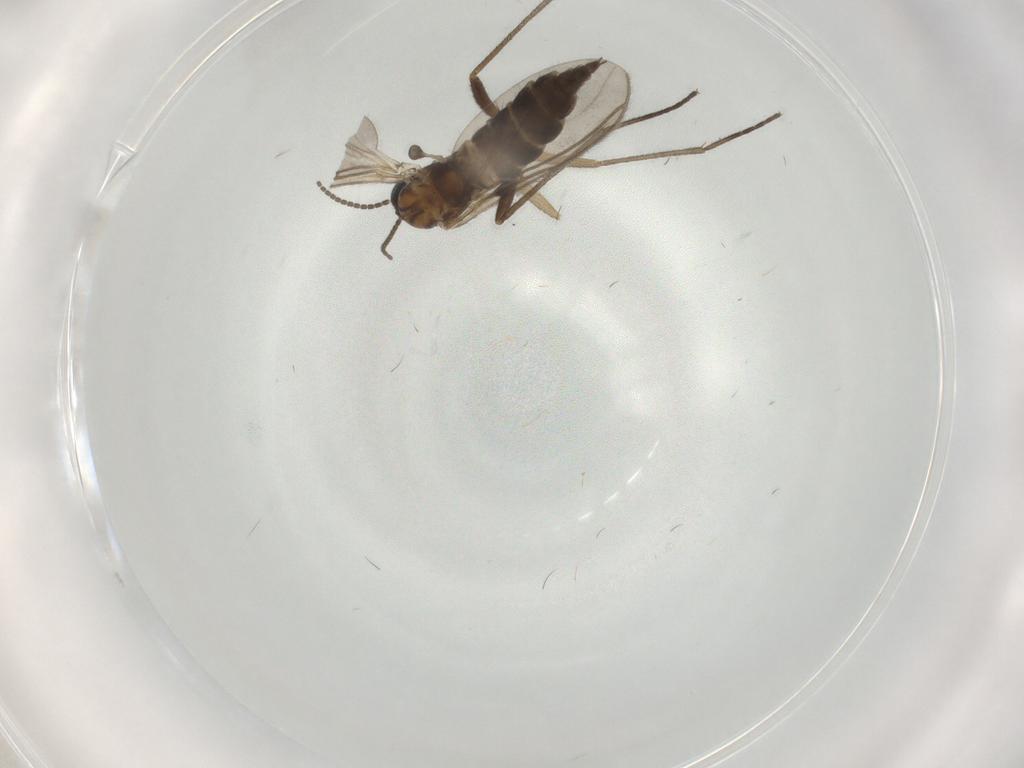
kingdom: Animalia
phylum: Arthropoda
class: Insecta
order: Diptera
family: Sciaridae
